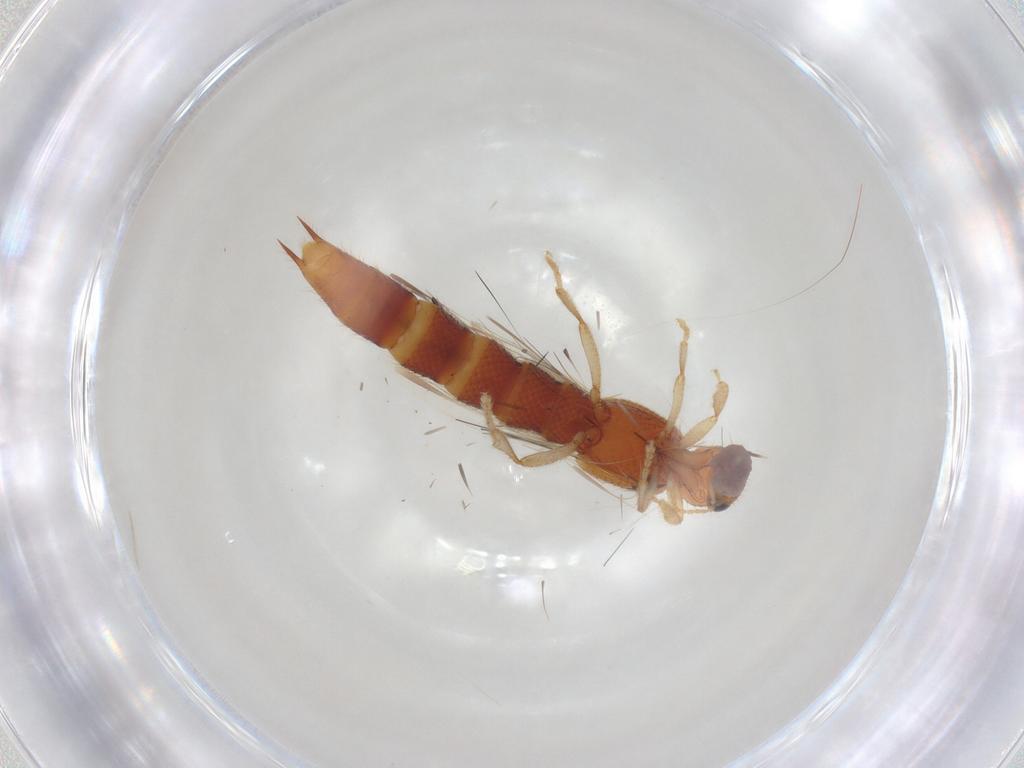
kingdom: Animalia
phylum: Arthropoda
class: Insecta
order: Coleoptera
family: Staphylinidae
